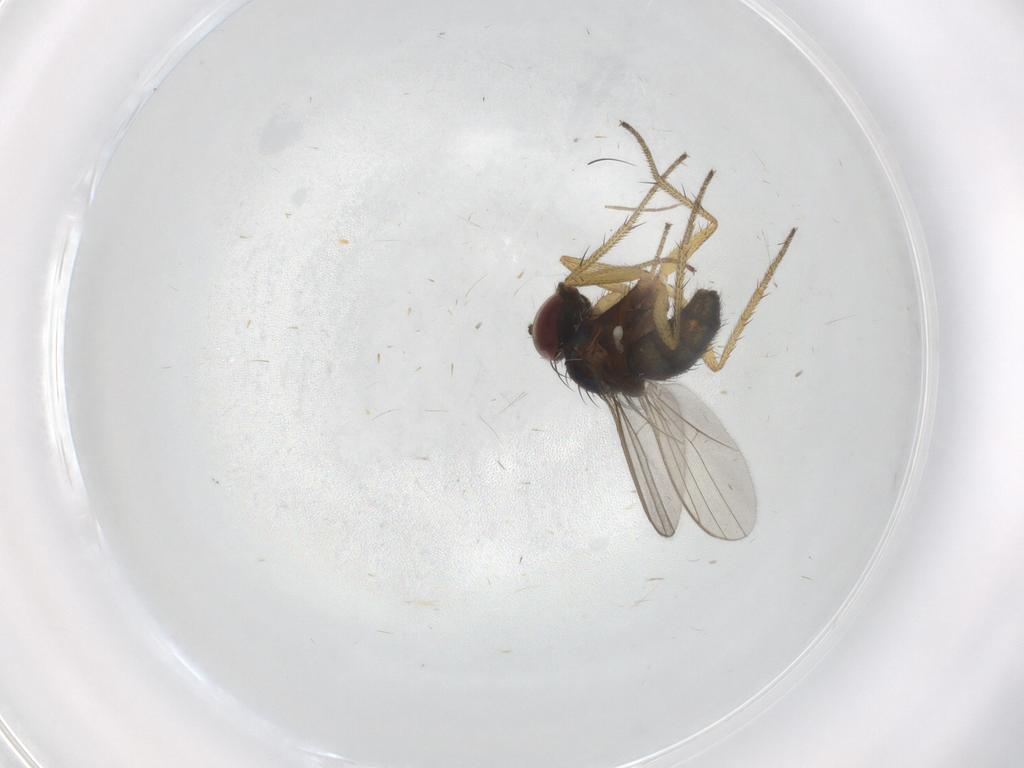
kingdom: Animalia
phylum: Arthropoda
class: Insecta
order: Diptera
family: Dolichopodidae
